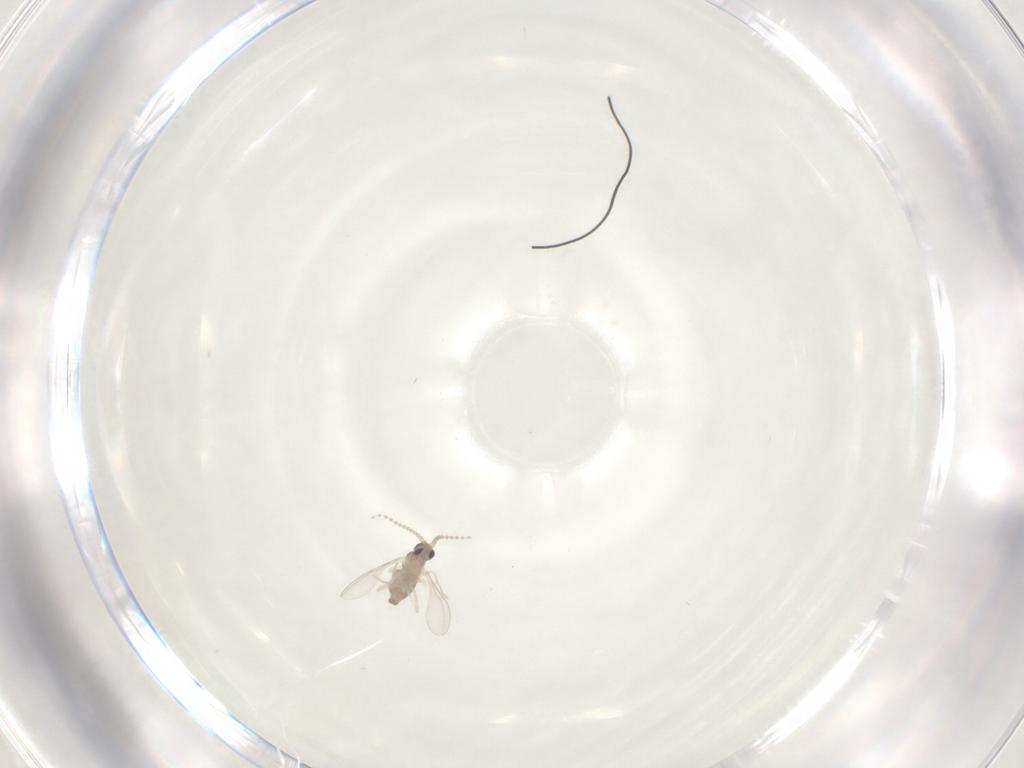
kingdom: Animalia
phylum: Arthropoda
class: Insecta
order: Diptera
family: Cecidomyiidae
